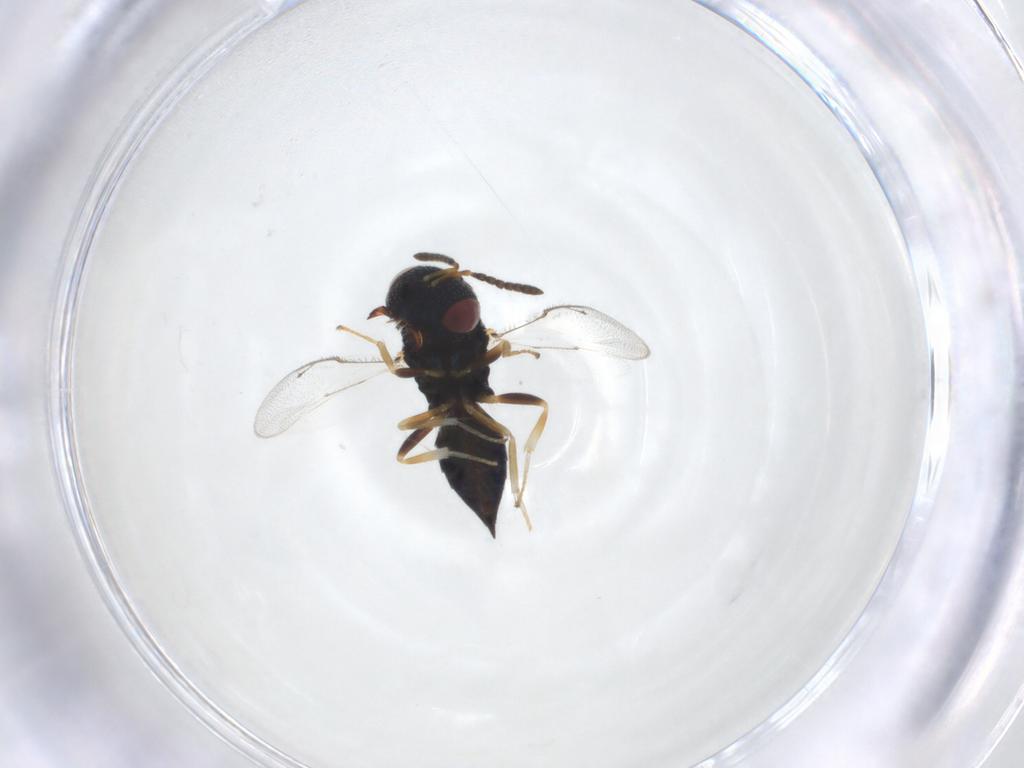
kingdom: Animalia
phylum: Arthropoda
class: Insecta
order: Hymenoptera
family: Pteromalidae
